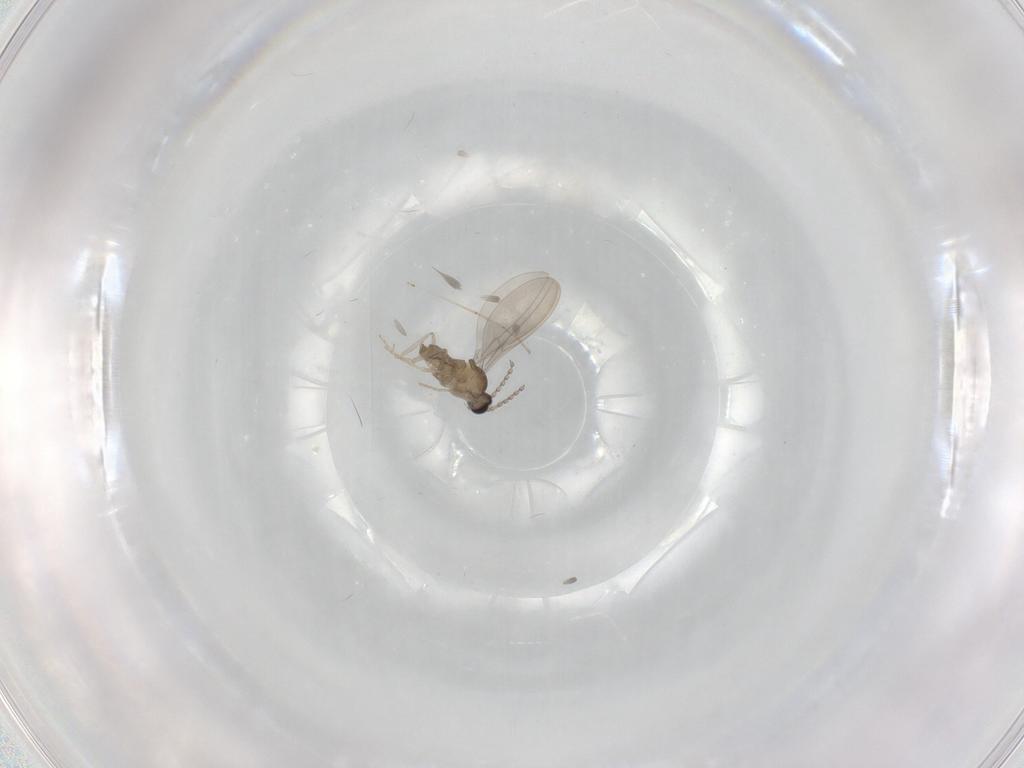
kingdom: Animalia
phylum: Arthropoda
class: Insecta
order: Diptera
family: Cecidomyiidae
